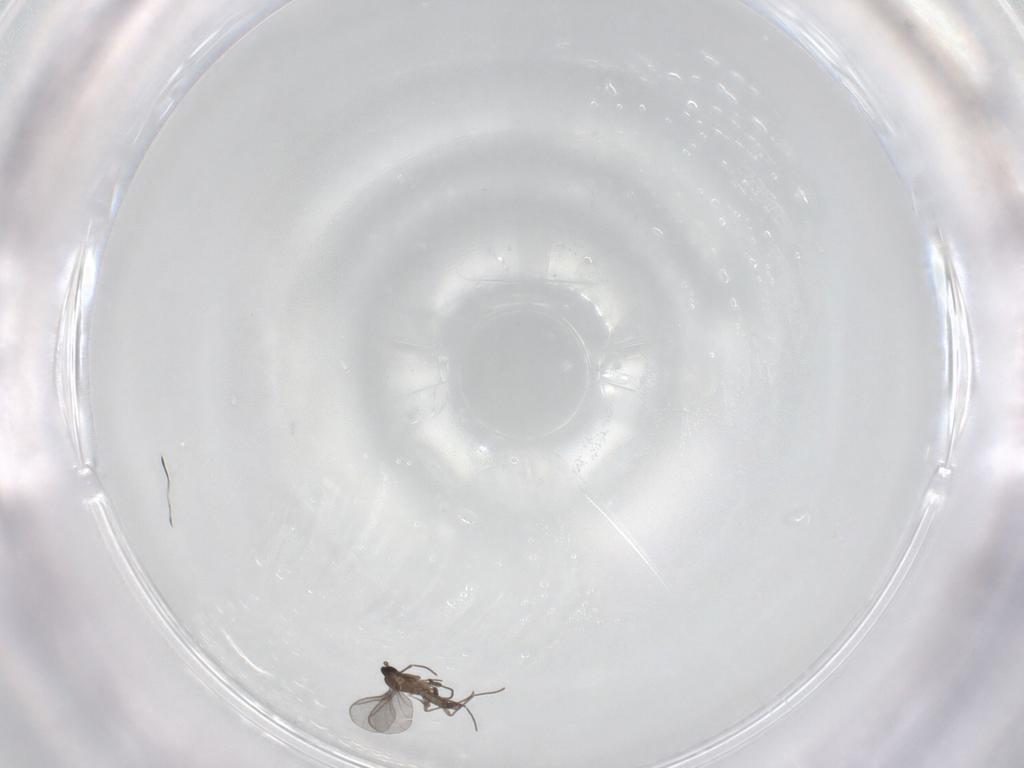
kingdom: Animalia
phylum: Arthropoda
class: Insecta
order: Diptera
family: Sciaridae
